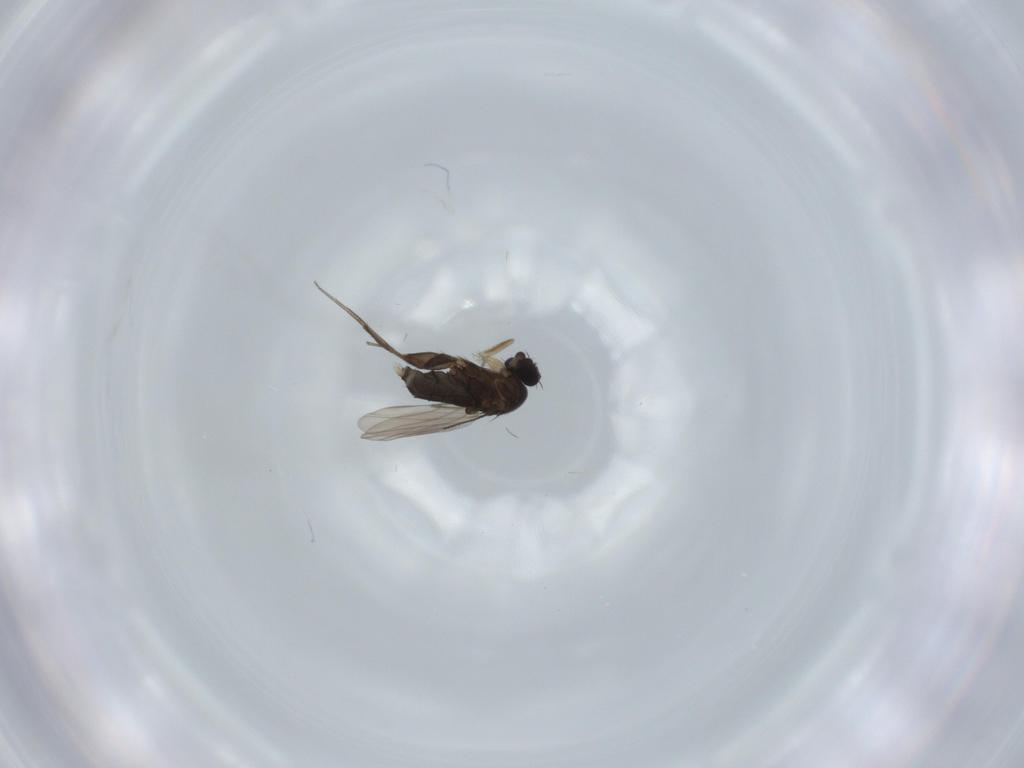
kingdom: Animalia
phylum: Arthropoda
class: Insecta
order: Diptera
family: Phoridae
